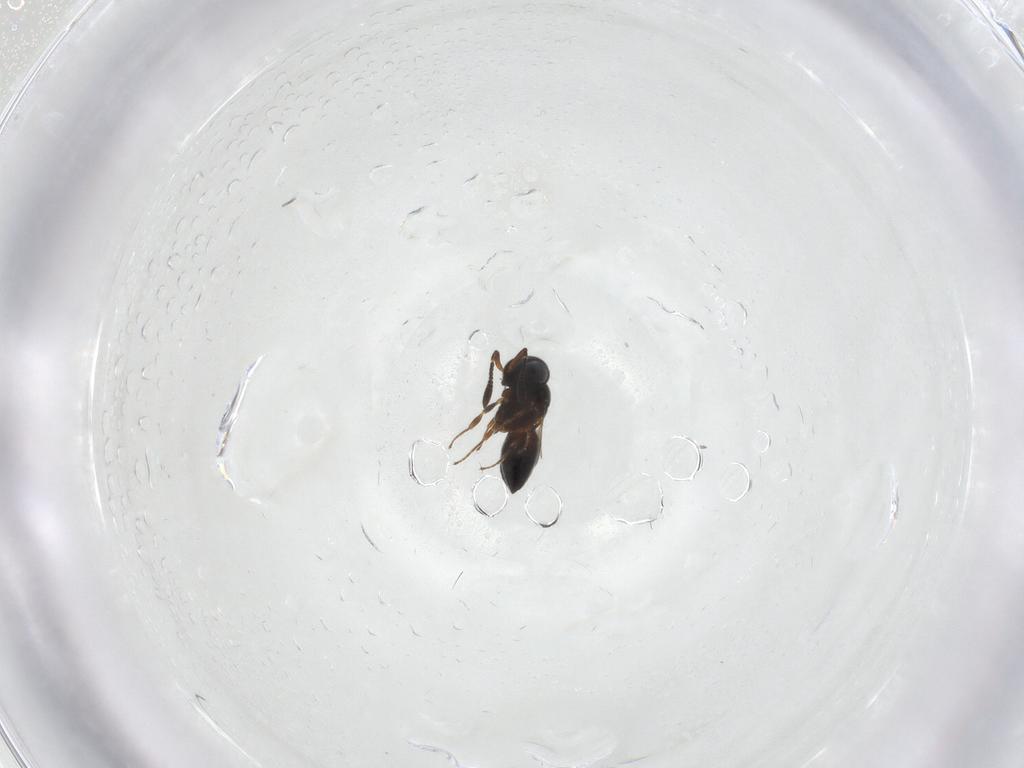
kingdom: Animalia
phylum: Arthropoda
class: Insecta
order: Hymenoptera
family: Scelionidae
